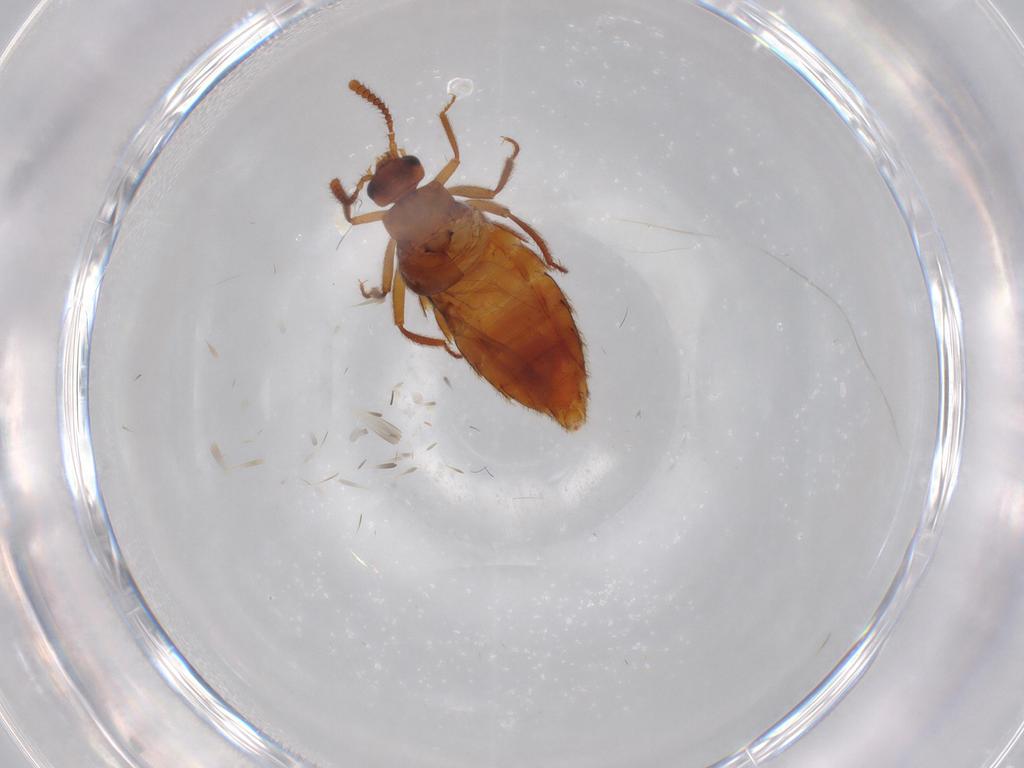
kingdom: Animalia
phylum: Arthropoda
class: Insecta
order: Coleoptera
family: Staphylinidae
